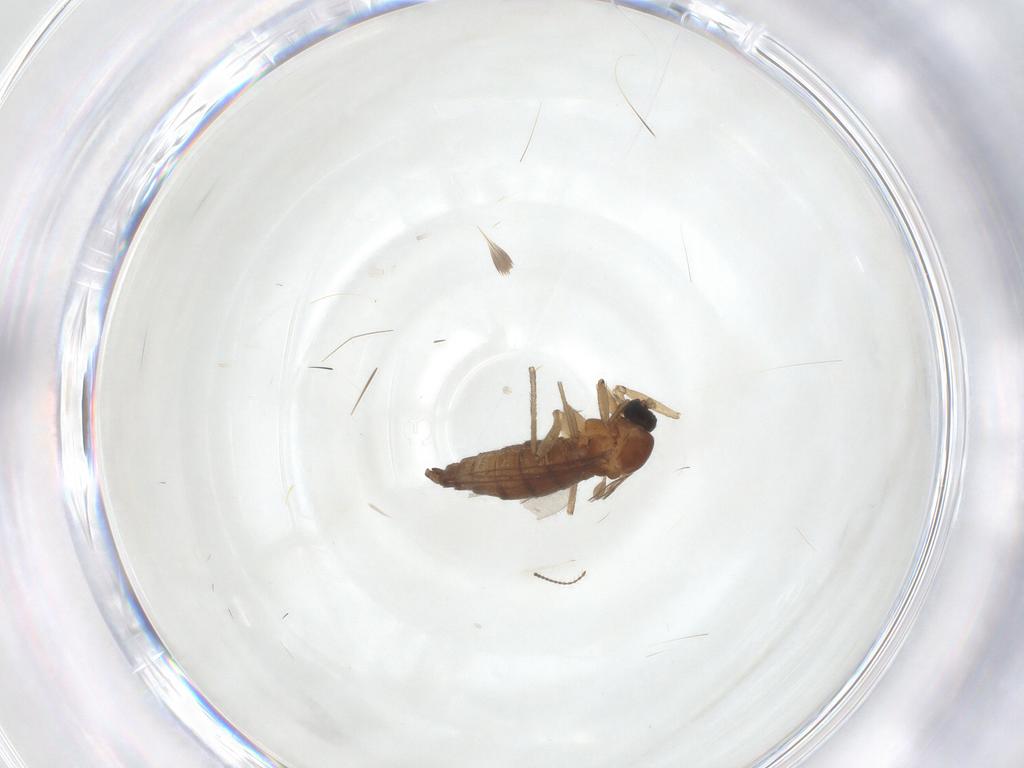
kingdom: Animalia
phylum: Arthropoda
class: Insecta
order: Diptera
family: Sciaridae
